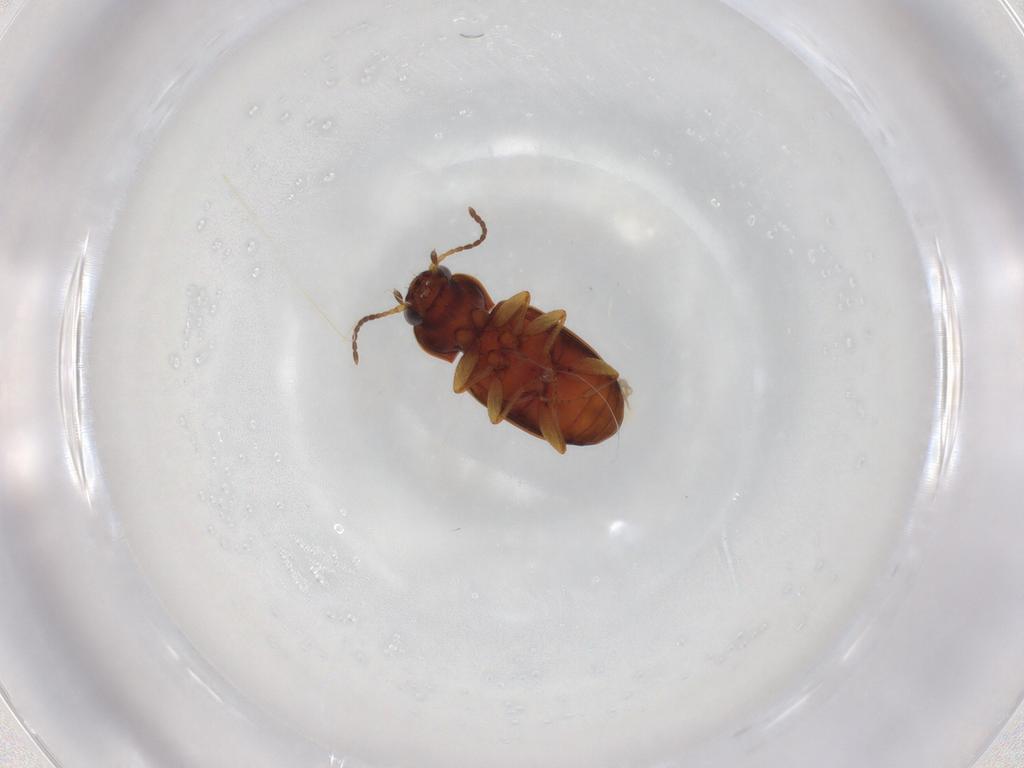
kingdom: Animalia
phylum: Arthropoda
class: Insecta
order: Coleoptera
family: Carabidae
